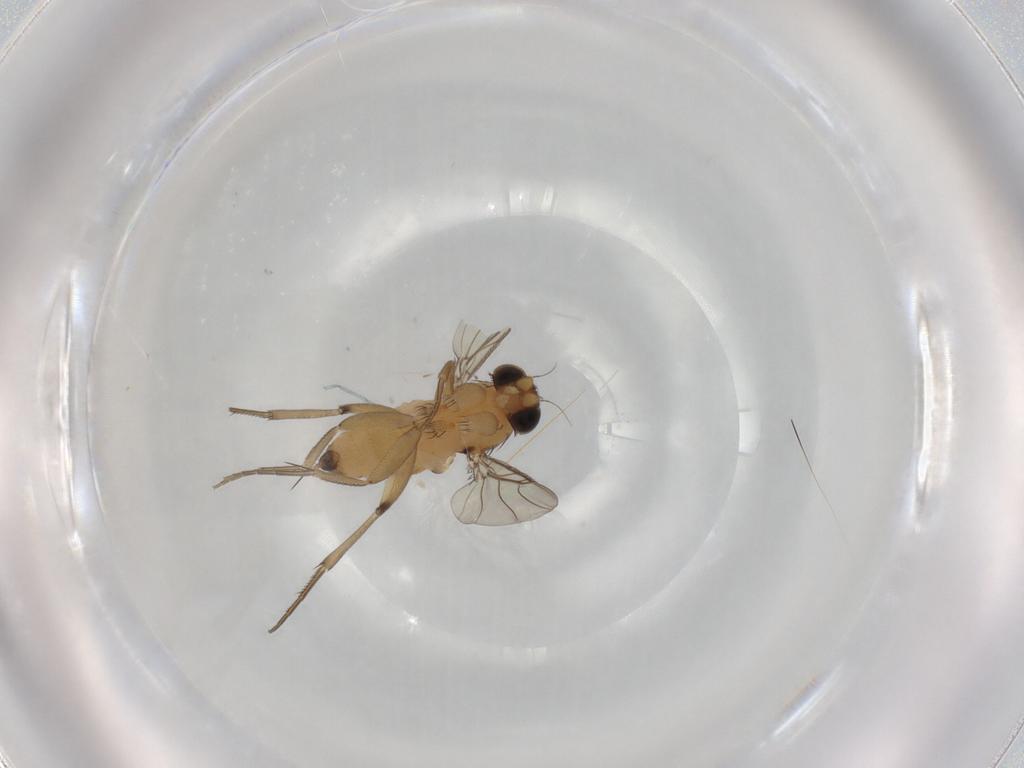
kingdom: Animalia
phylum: Arthropoda
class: Insecta
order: Diptera
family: Phoridae
